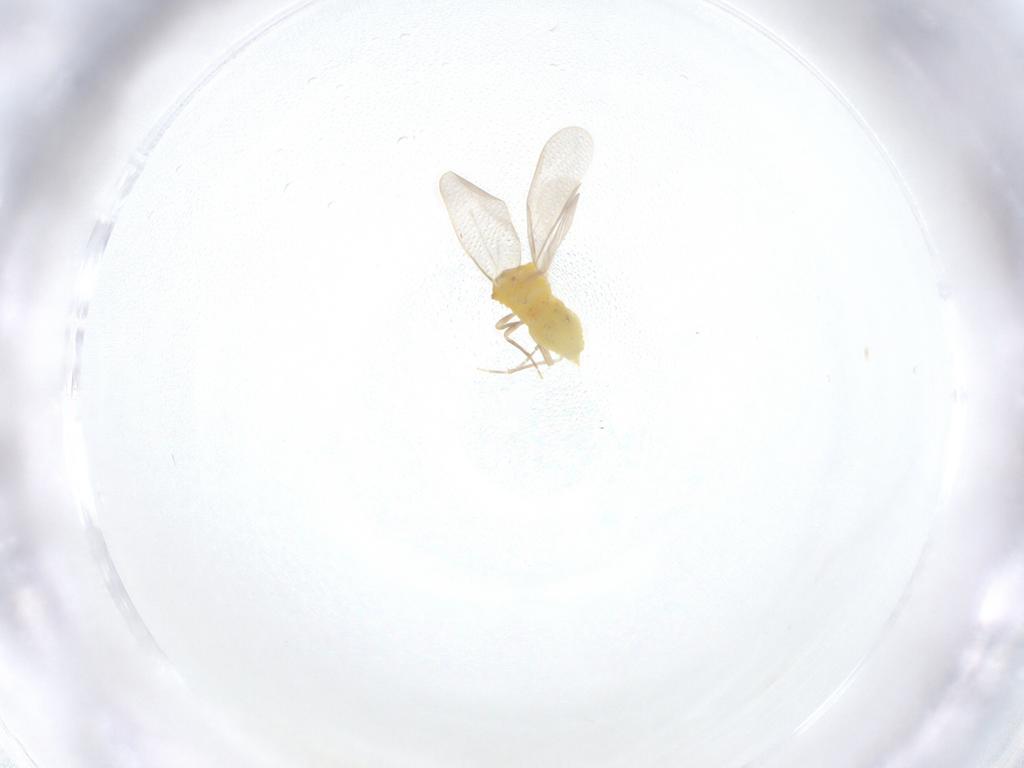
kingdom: Animalia
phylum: Arthropoda
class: Insecta
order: Hemiptera
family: Aleyrodidae
